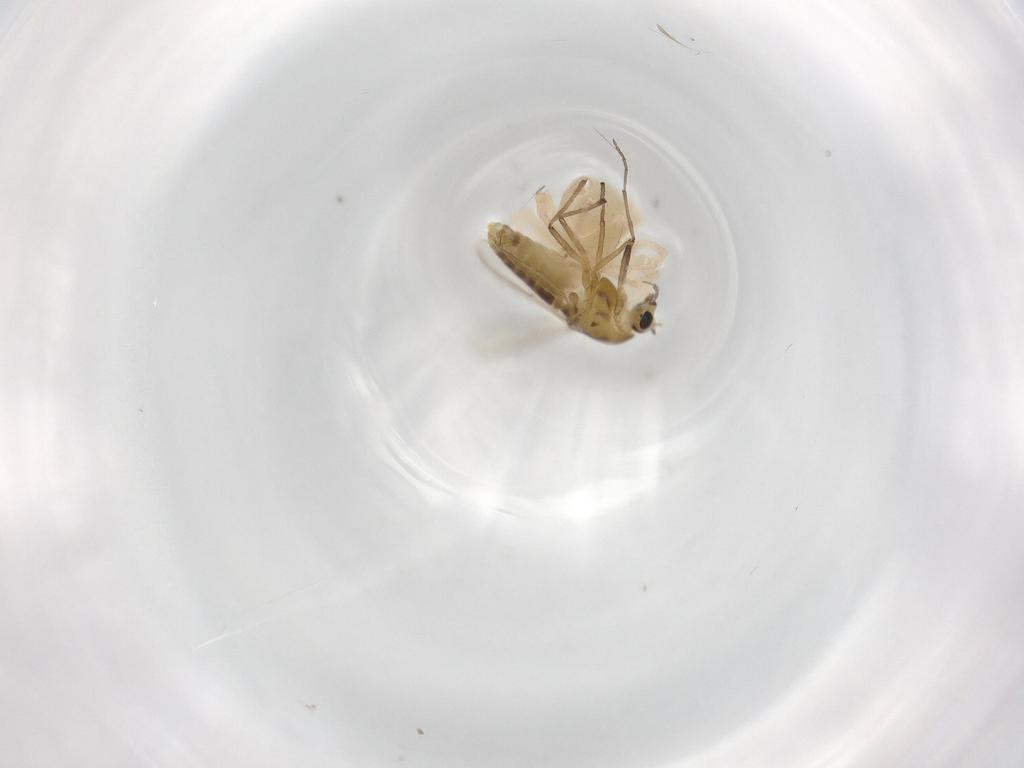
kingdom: Animalia
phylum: Arthropoda
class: Insecta
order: Diptera
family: Chironomidae
